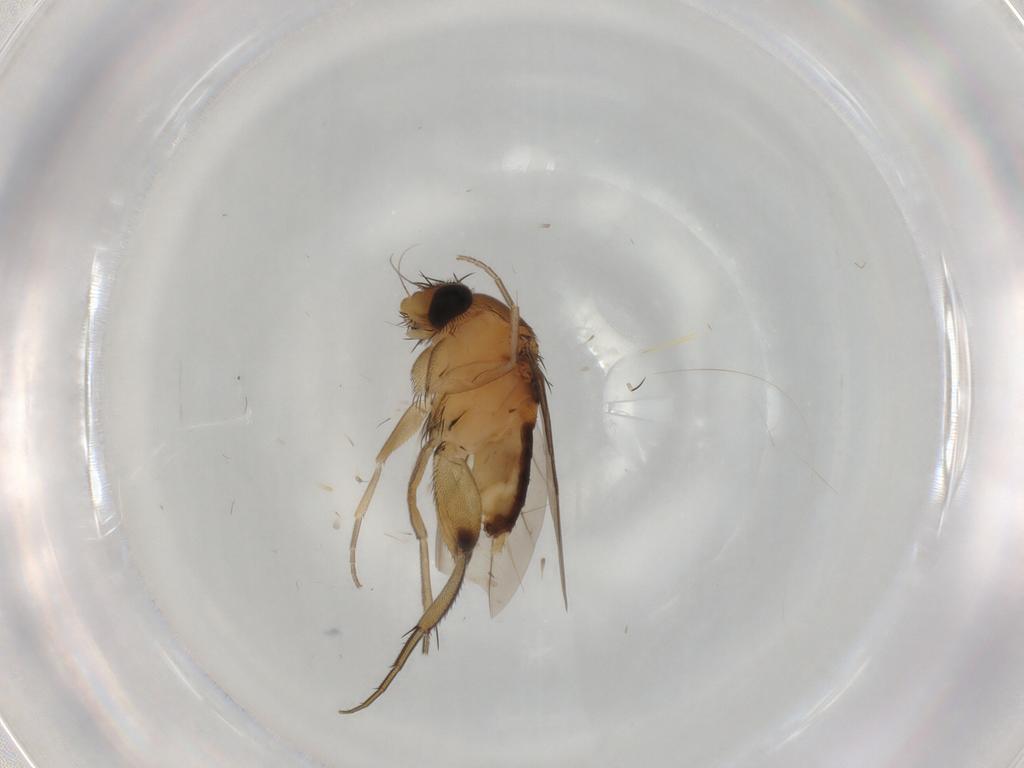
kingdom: Animalia
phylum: Arthropoda
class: Insecta
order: Diptera
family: Phoridae
